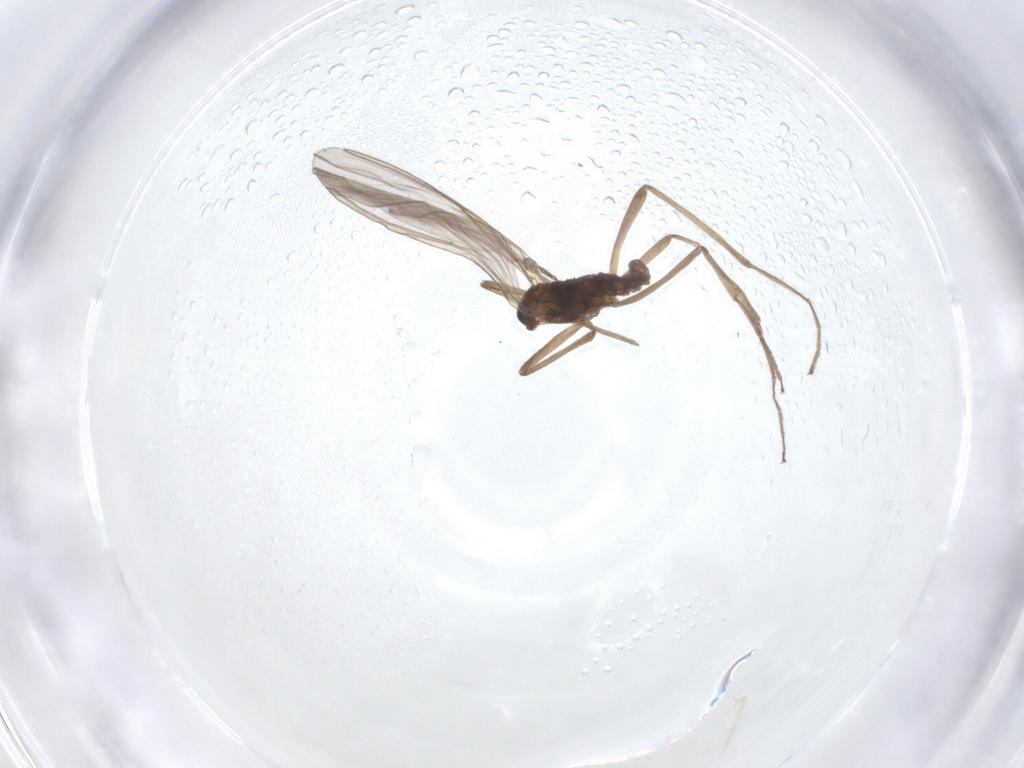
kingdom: Animalia
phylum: Arthropoda
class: Insecta
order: Diptera
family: Cecidomyiidae
